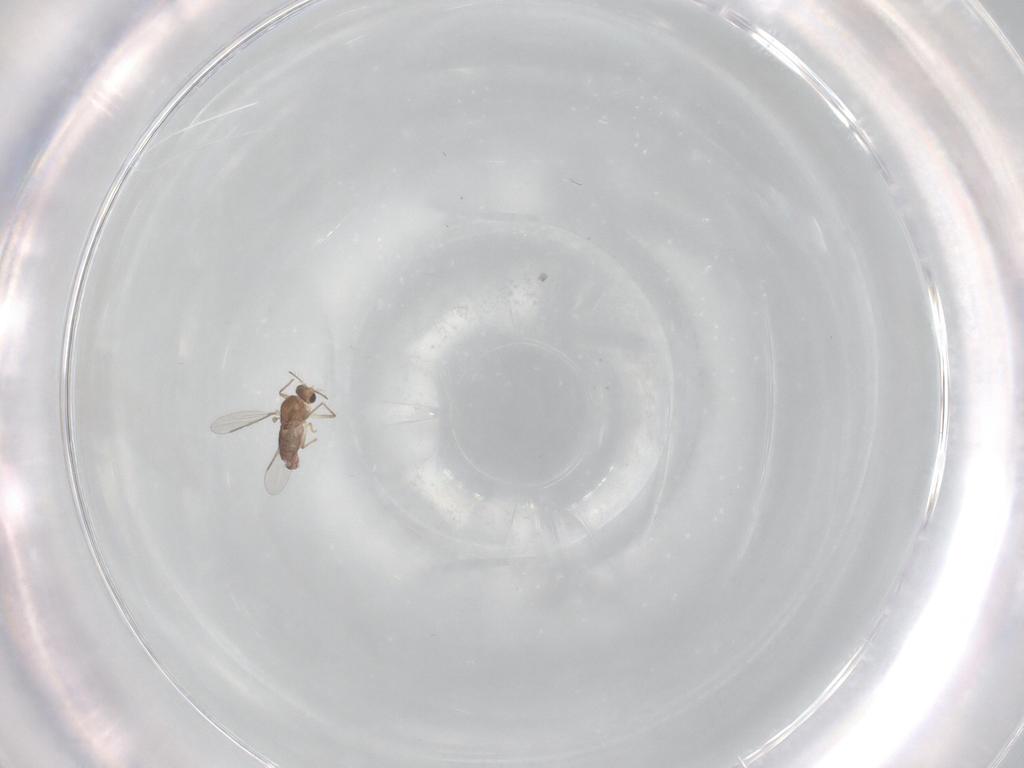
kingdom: Animalia
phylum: Arthropoda
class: Insecta
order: Diptera
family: Chironomidae
